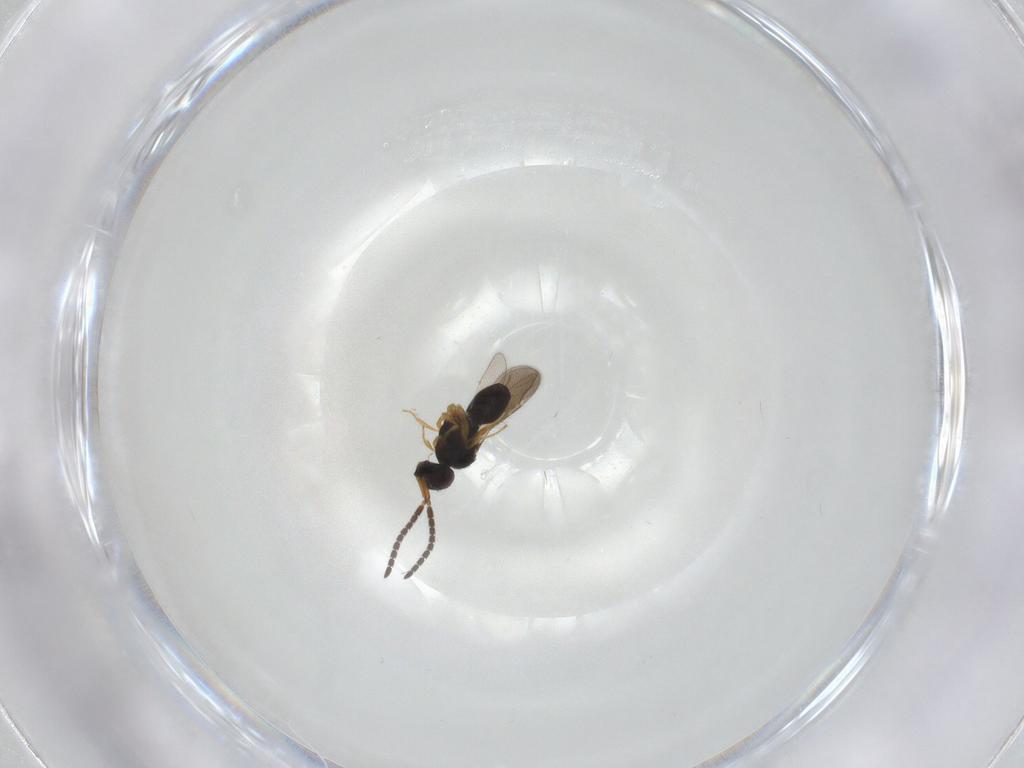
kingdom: Animalia
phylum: Arthropoda
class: Insecta
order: Hymenoptera
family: Ceraphronidae
